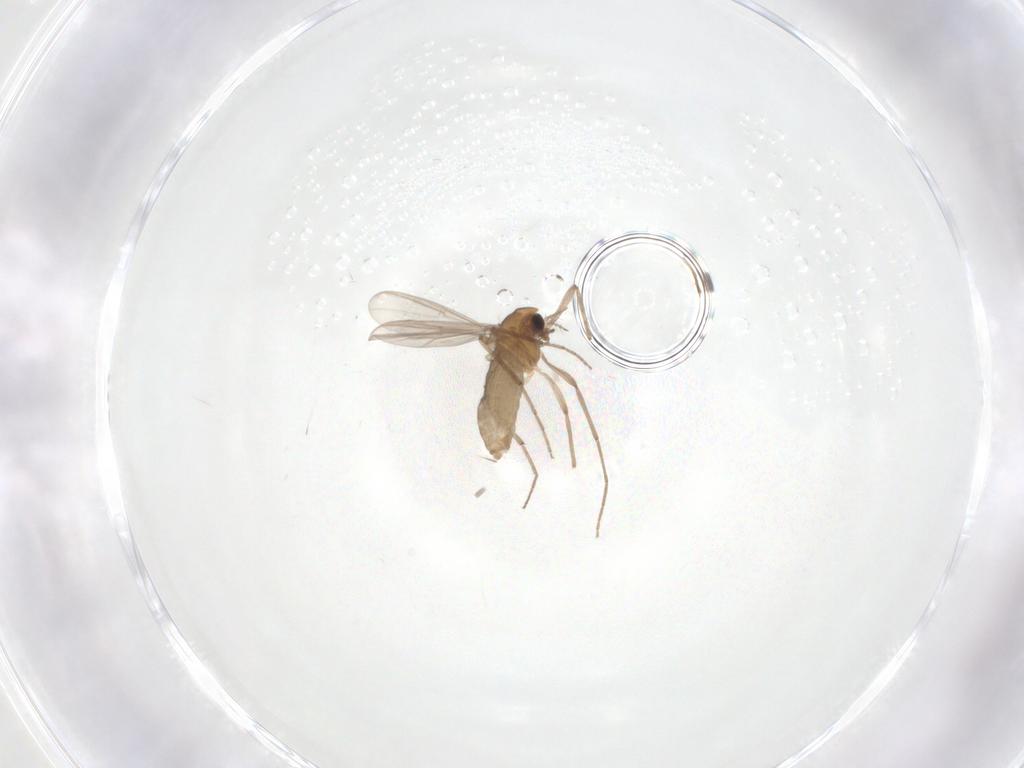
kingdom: Animalia
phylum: Arthropoda
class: Insecta
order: Diptera
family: Chironomidae
